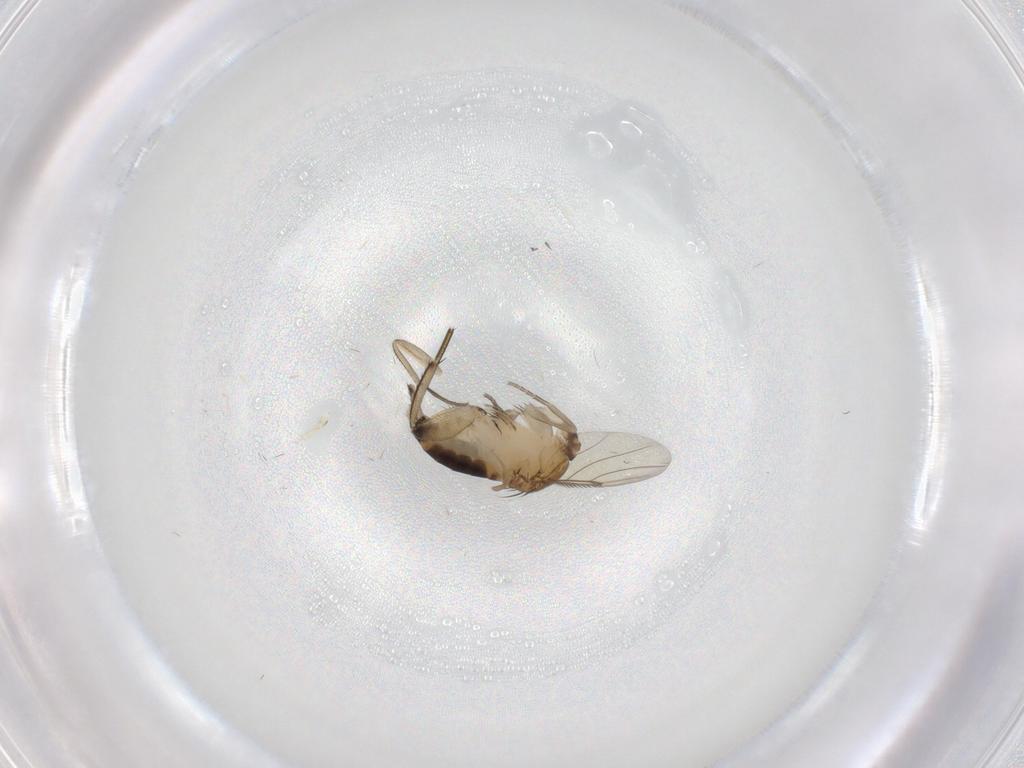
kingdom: Animalia
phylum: Arthropoda
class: Insecta
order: Diptera
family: Phoridae
